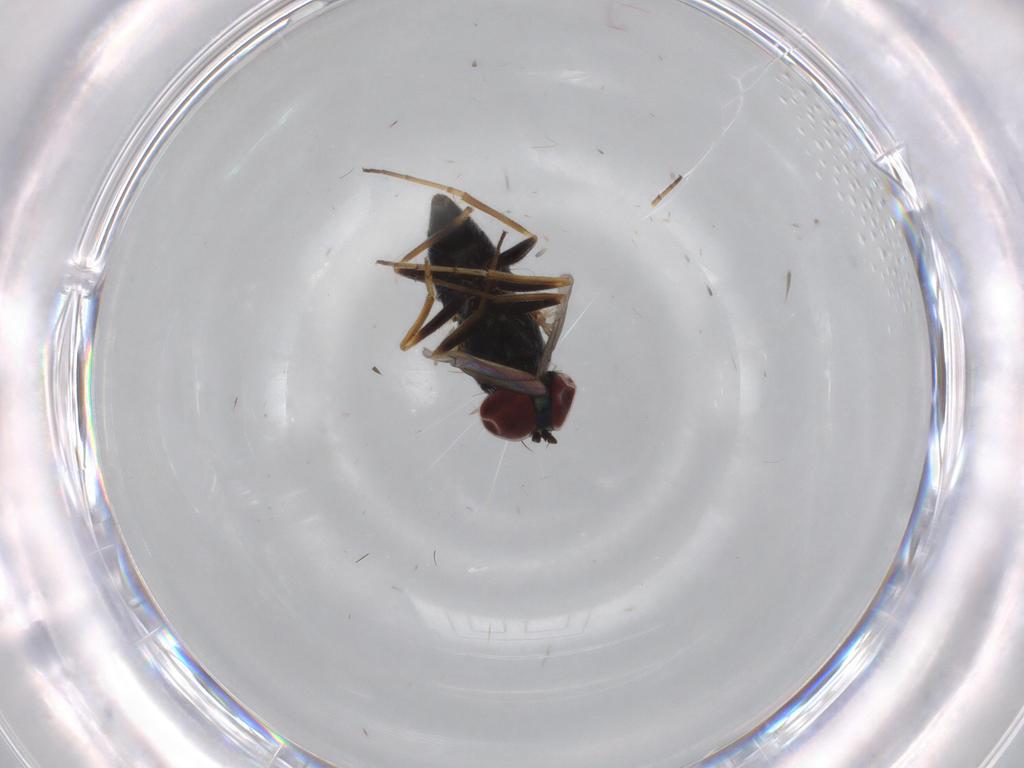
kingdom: Animalia
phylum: Arthropoda
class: Insecta
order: Diptera
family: Dolichopodidae
